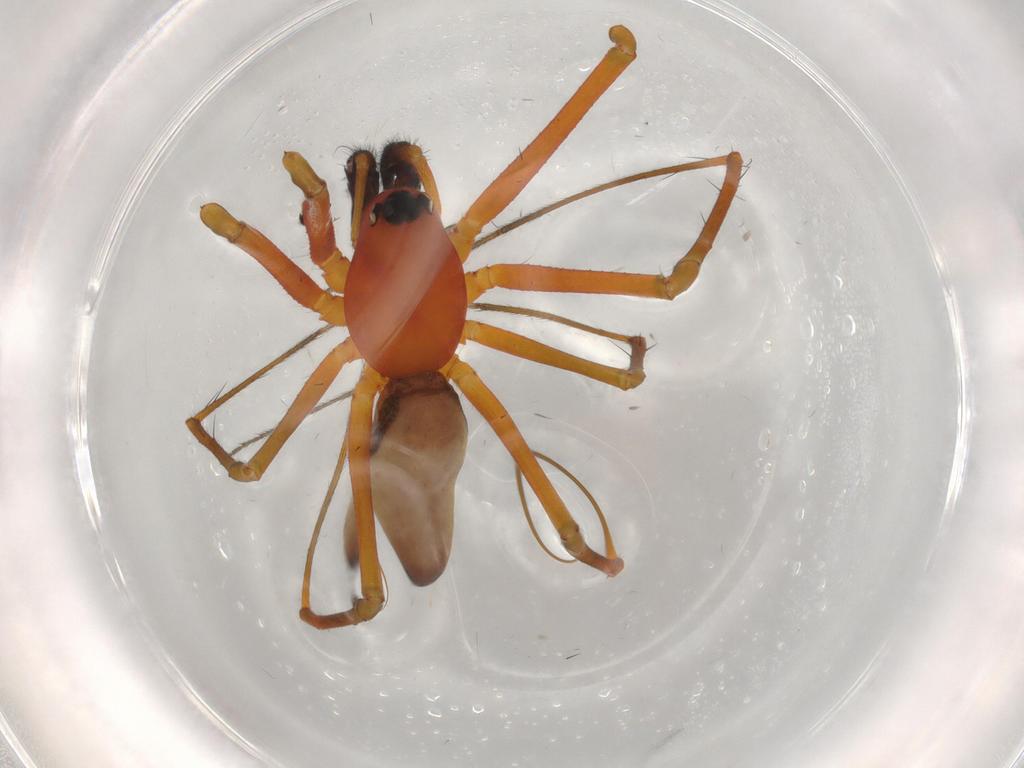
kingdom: Animalia
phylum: Arthropoda
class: Arachnida
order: Araneae
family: Linyphiidae
